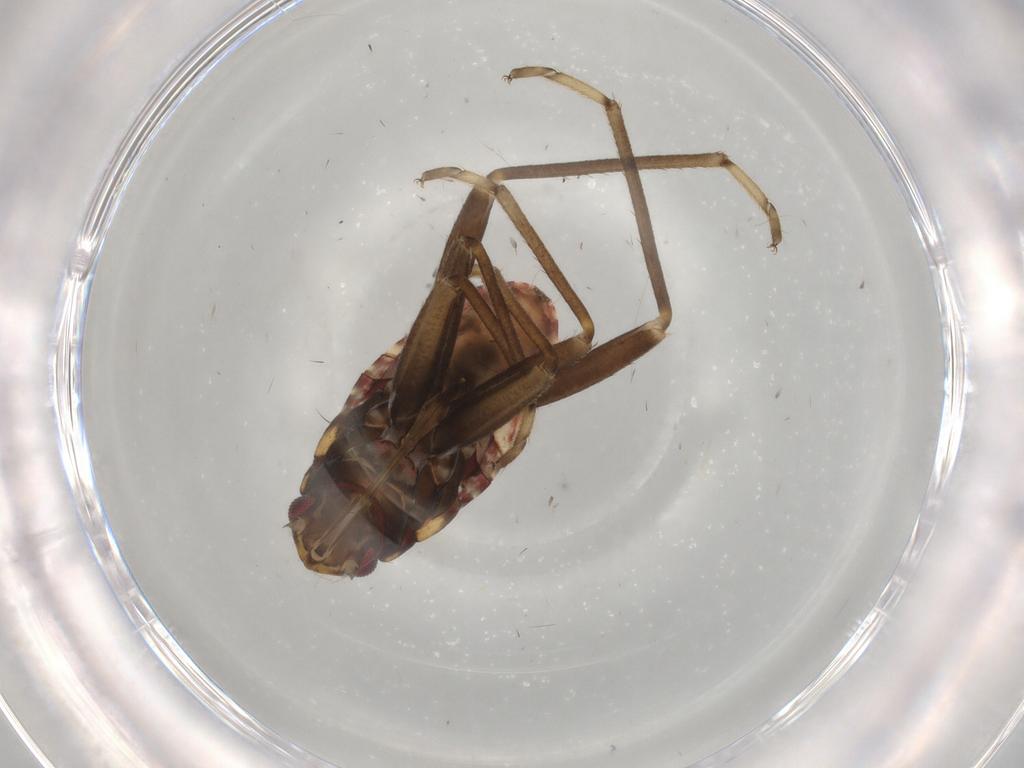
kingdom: Animalia
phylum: Arthropoda
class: Insecta
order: Hemiptera
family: Rhyparochromidae
